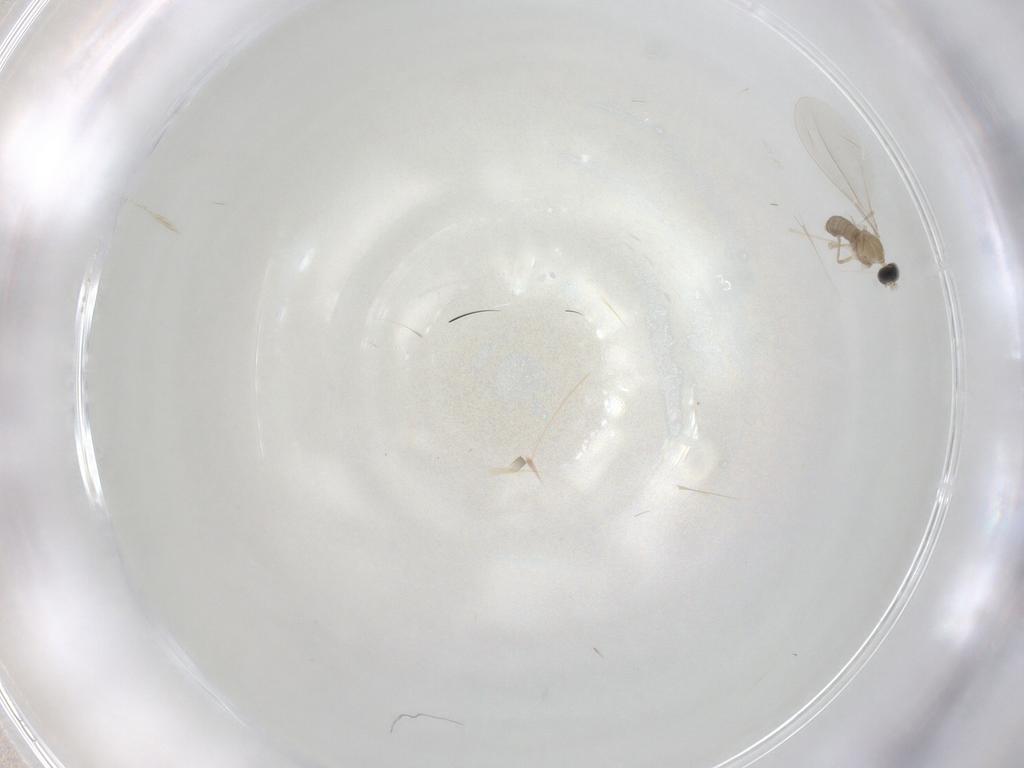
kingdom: Animalia
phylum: Arthropoda
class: Insecta
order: Diptera
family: Cecidomyiidae
